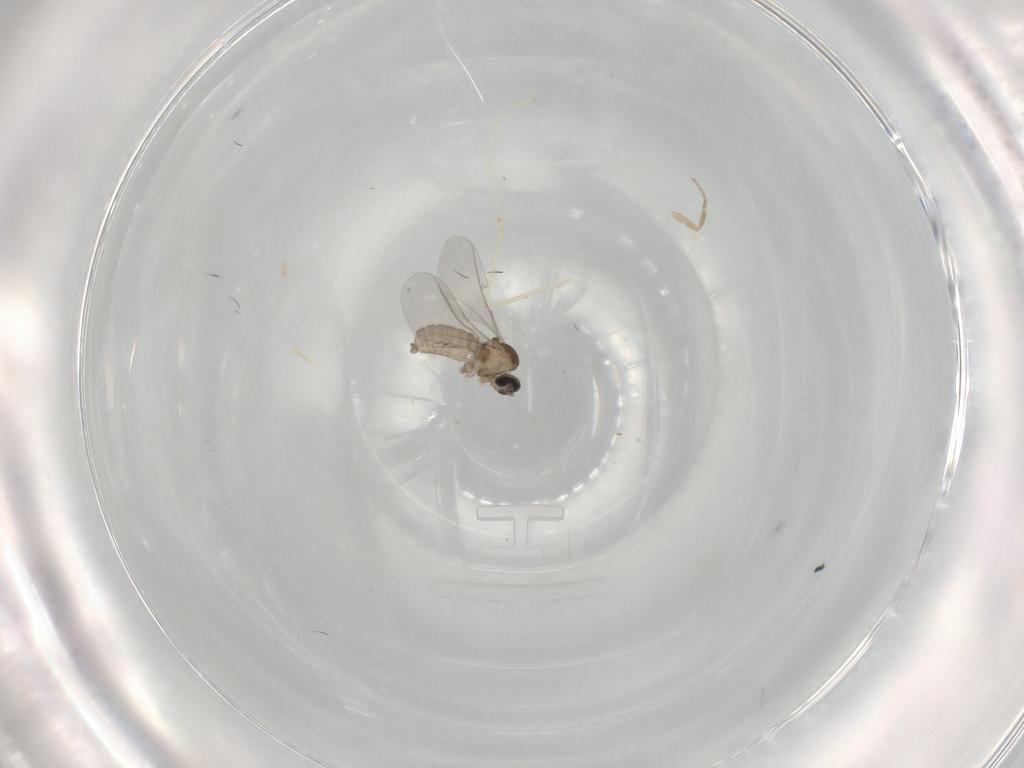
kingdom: Animalia
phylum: Arthropoda
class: Insecta
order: Diptera
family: Cecidomyiidae
